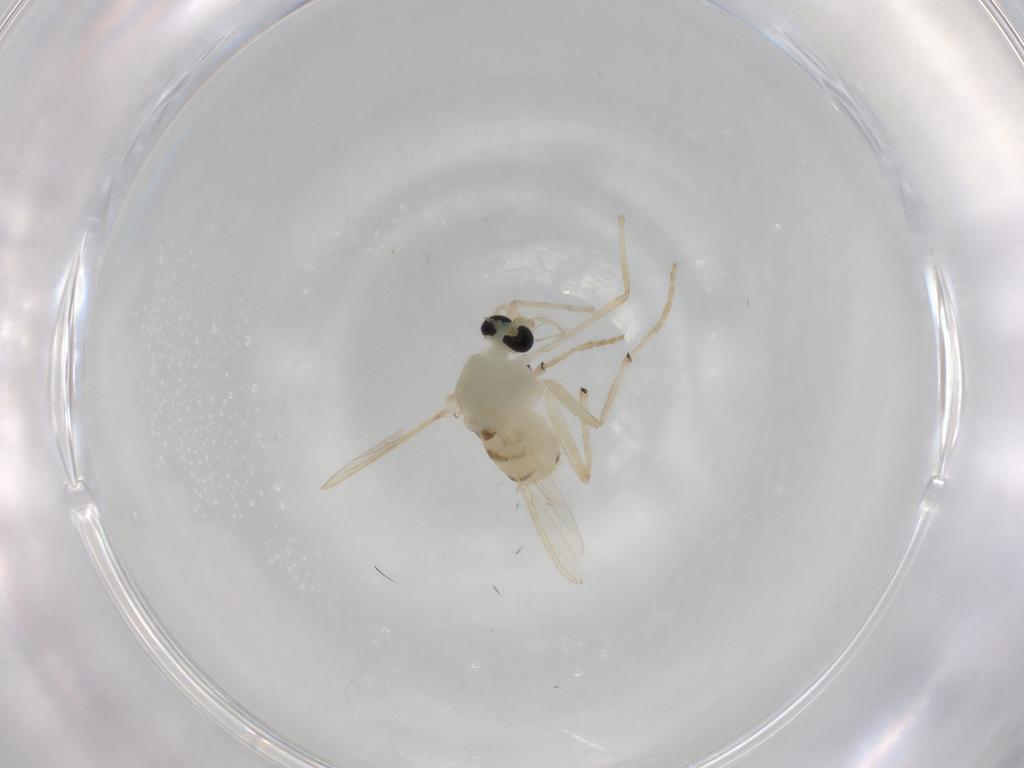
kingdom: Animalia
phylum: Arthropoda
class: Insecta
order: Diptera
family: Chironomidae
